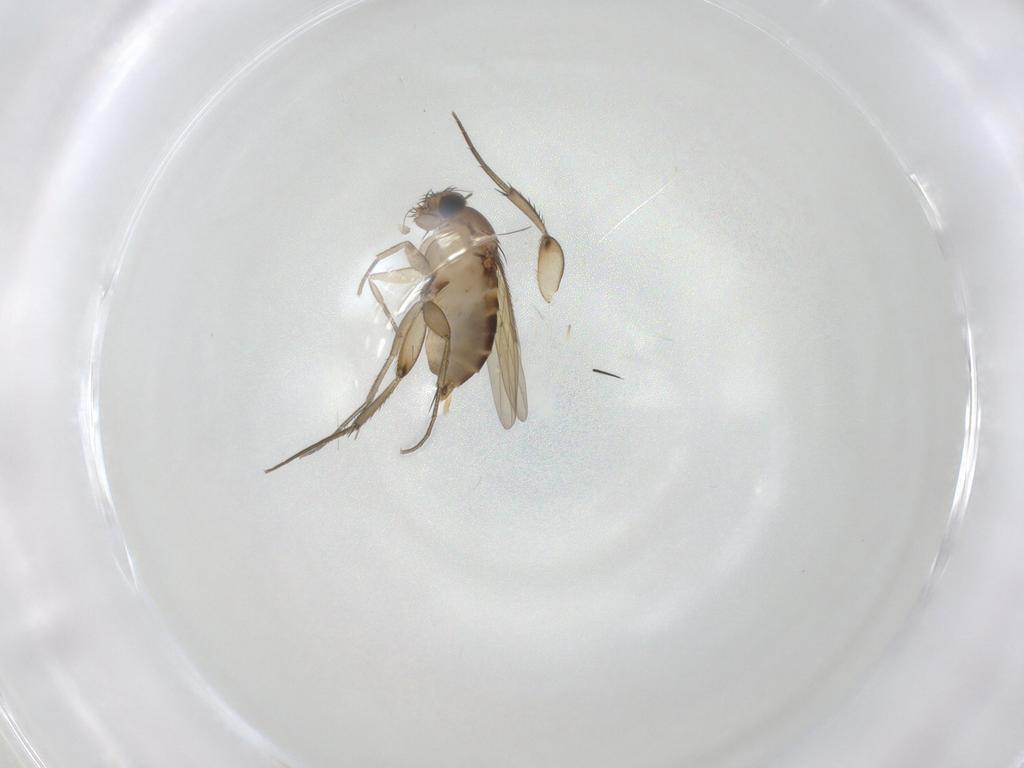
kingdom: Animalia
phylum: Arthropoda
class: Insecta
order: Diptera
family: Phoridae
